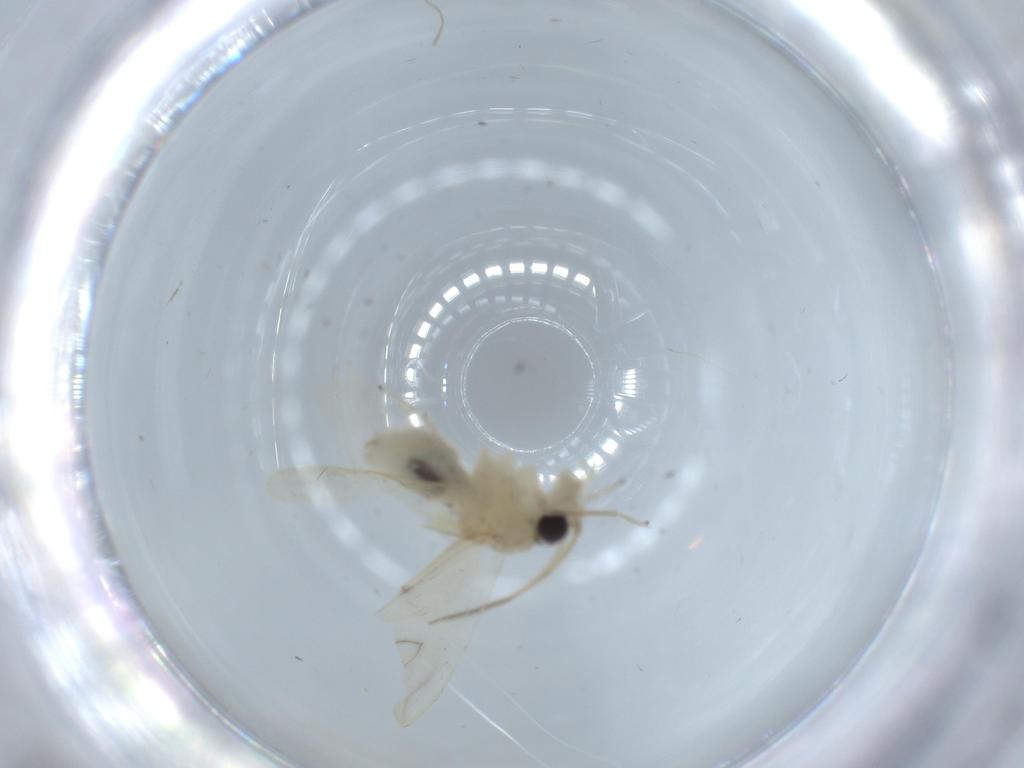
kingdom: Animalia
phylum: Arthropoda
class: Insecta
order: Psocodea
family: Caeciliusidae
